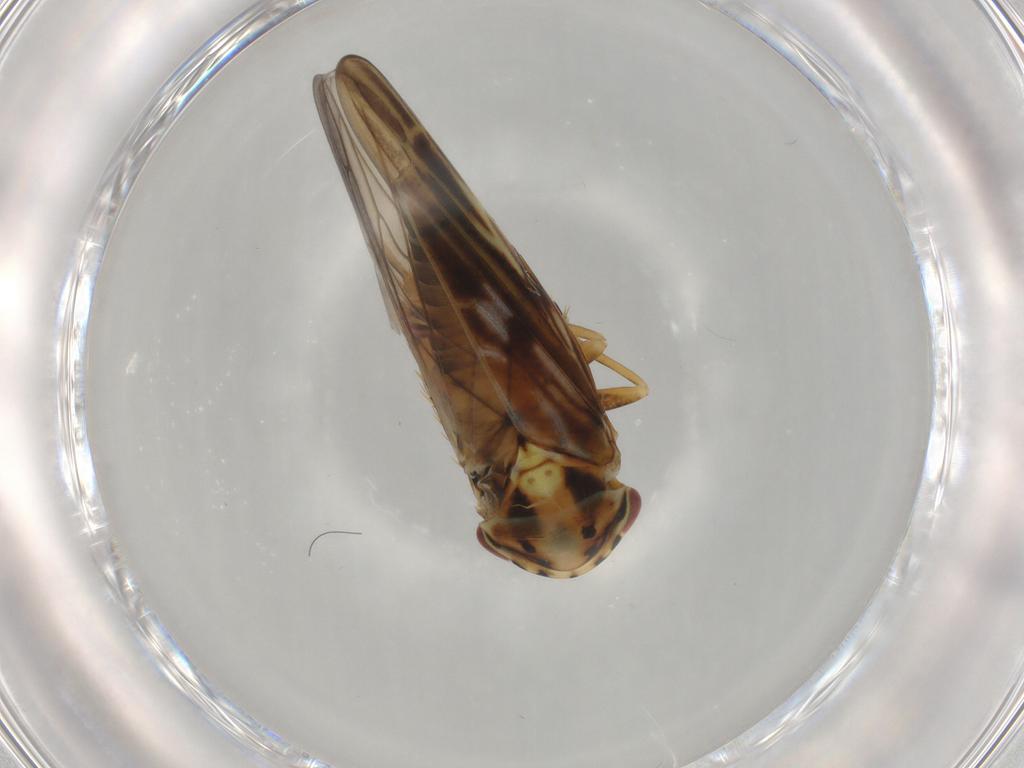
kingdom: Animalia
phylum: Arthropoda
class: Insecta
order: Hemiptera
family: Cicadellidae
